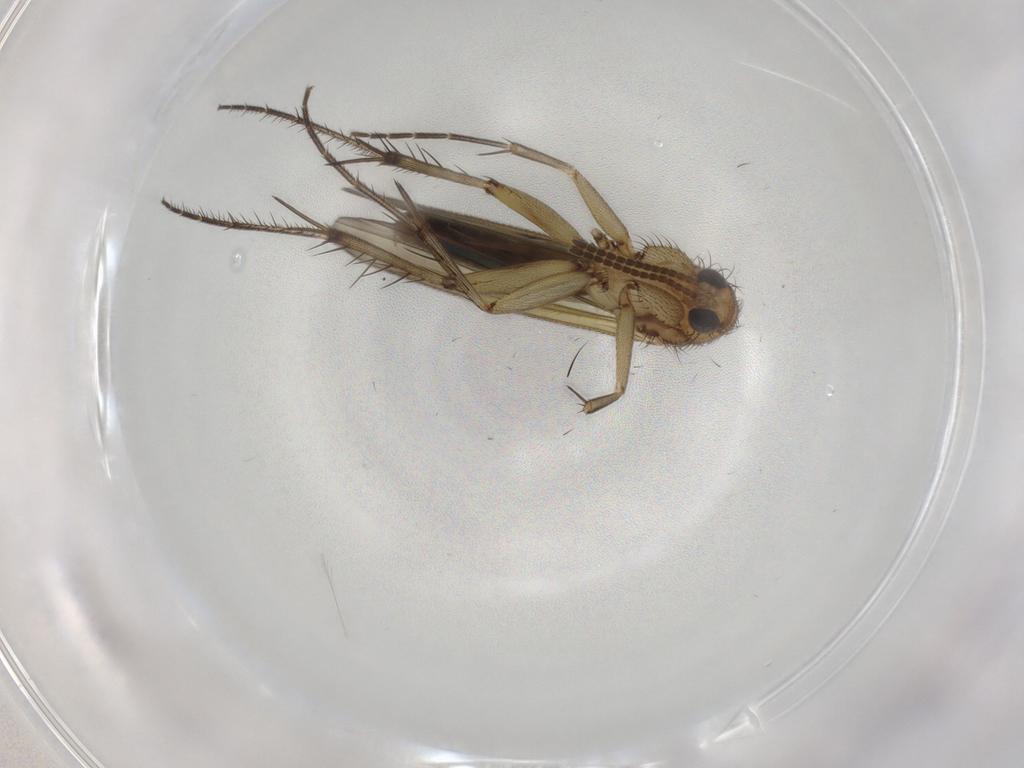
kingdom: Animalia
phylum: Arthropoda
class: Insecta
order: Diptera
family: Mycetophilidae
